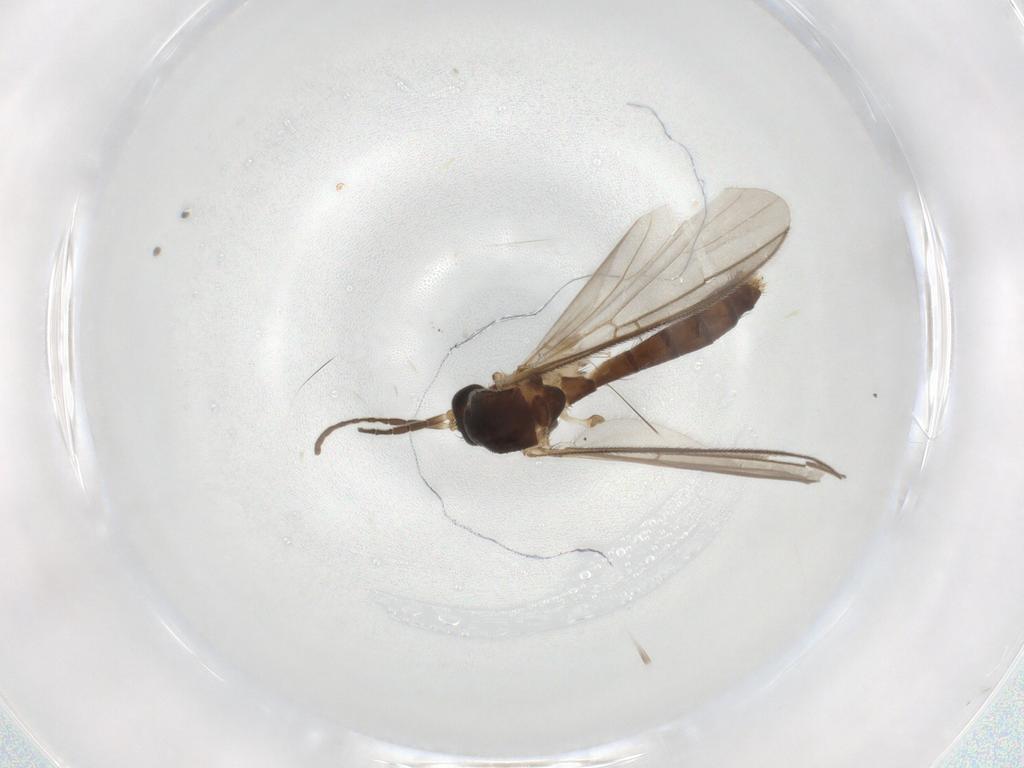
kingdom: Animalia
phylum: Arthropoda
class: Insecta
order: Diptera
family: Mycetophilidae
